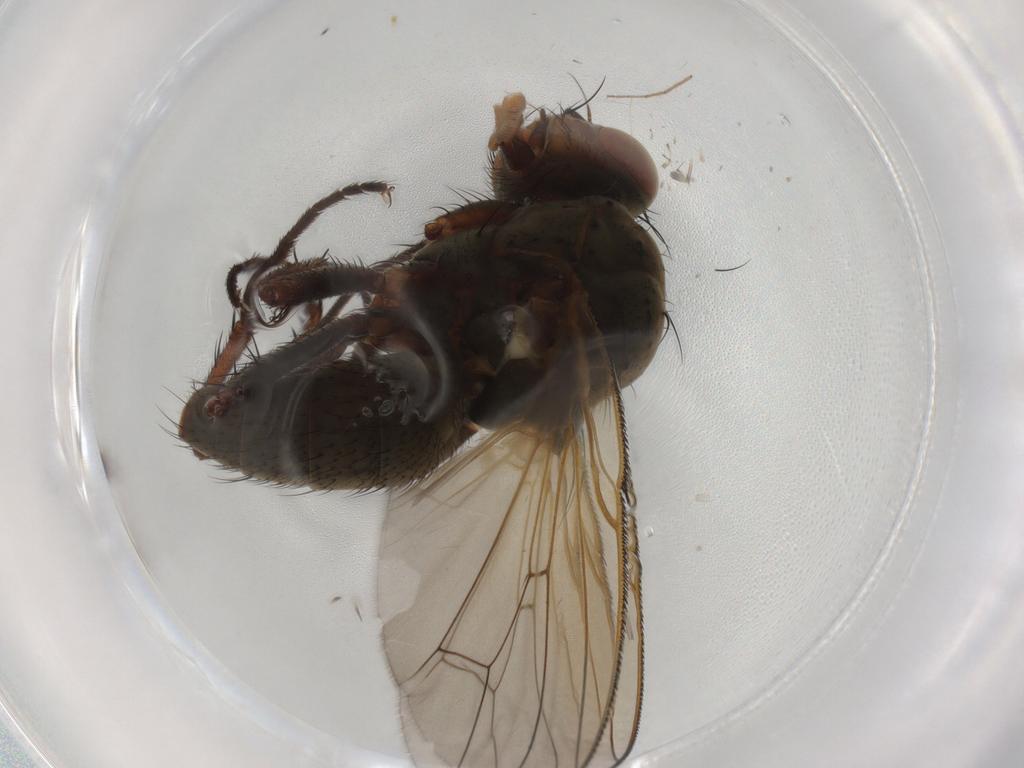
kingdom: Animalia
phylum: Arthropoda
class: Insecta
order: Diptera
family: Anthomyiidae
